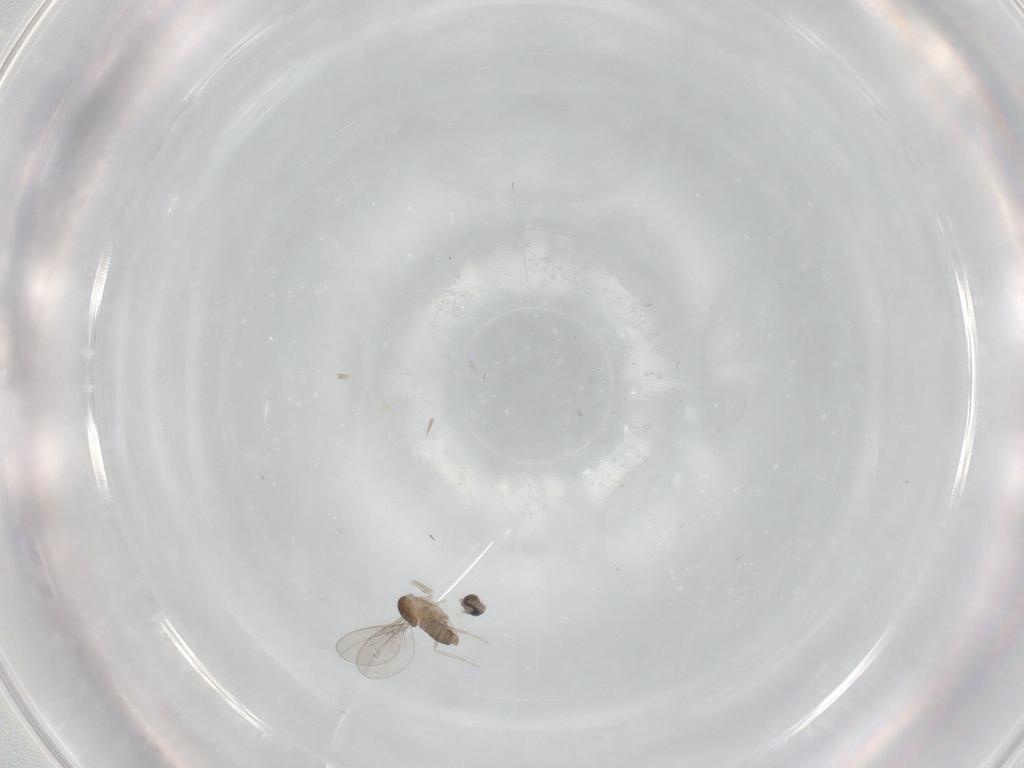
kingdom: Animalia
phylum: Arthropoda
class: Insecta
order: Diptera
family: Cecidomyiidae
